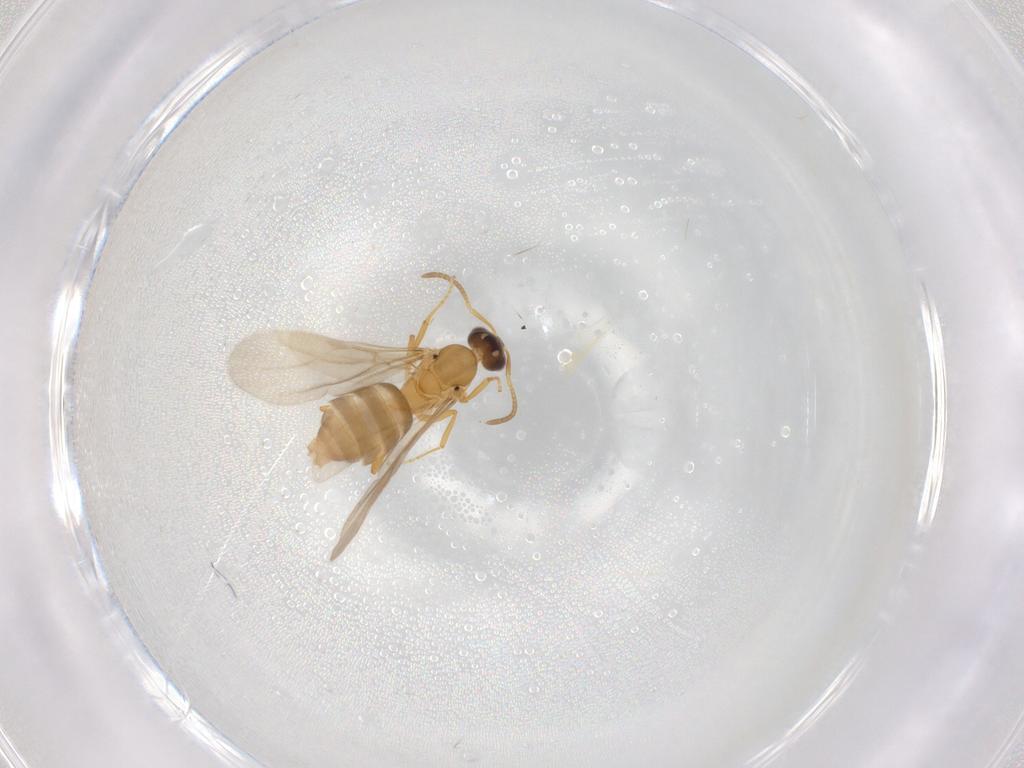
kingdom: Animalia
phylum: Arthropoda
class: Insecta
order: Hymenoptera
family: Formicidae
